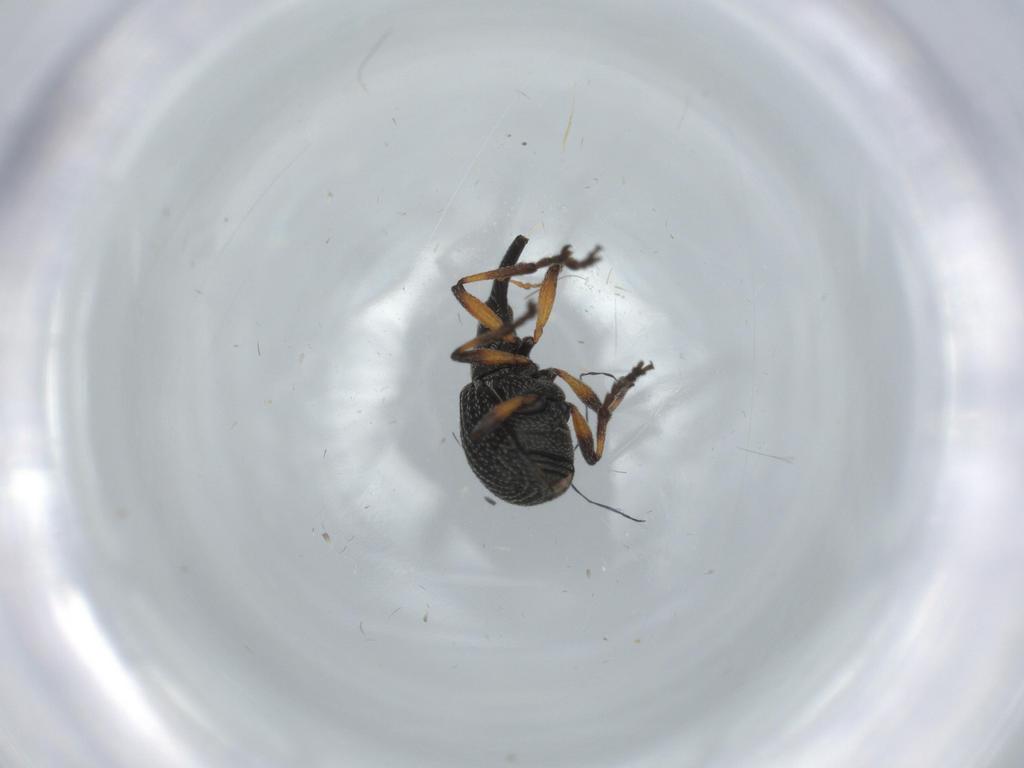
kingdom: Animalia
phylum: Arthropoda
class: Insecta
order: Coleoptera
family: Brentidae
